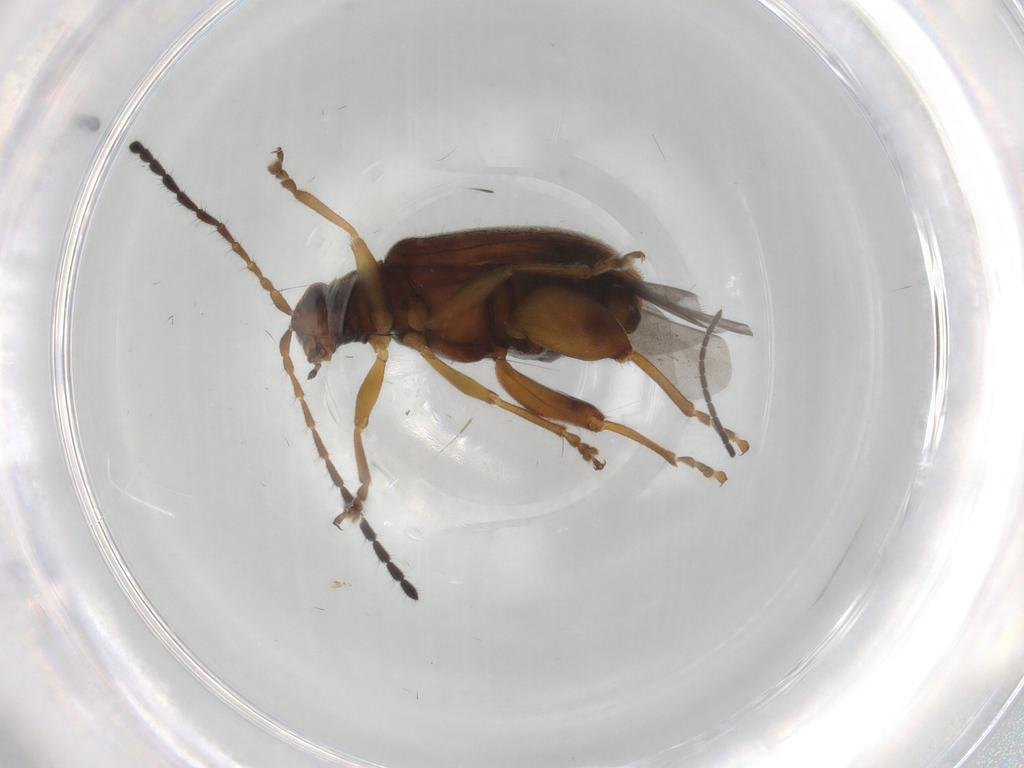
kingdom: Animalia
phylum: Arthropoda
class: Insecta
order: Coleoptera
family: Chrysomelidae
